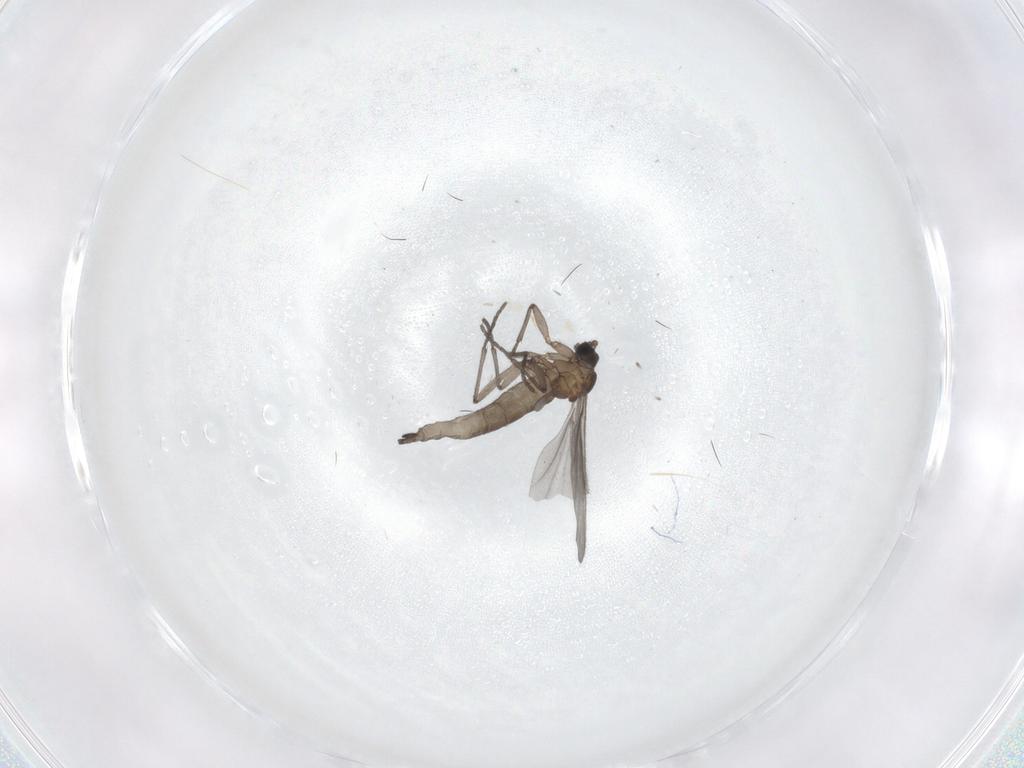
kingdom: Animalia
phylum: Arthropoda
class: Insecta
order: Diptera
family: Sciaridae
